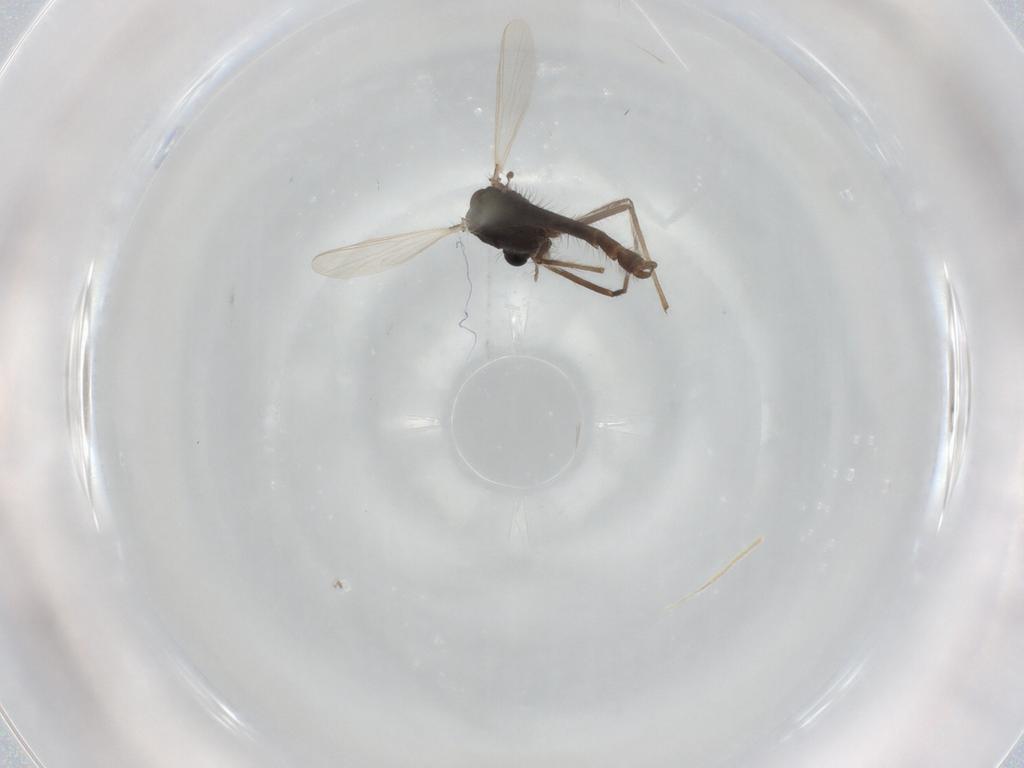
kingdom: Animalia
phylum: Arthropoda
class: Insecta
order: Diptera
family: Chironomidae
